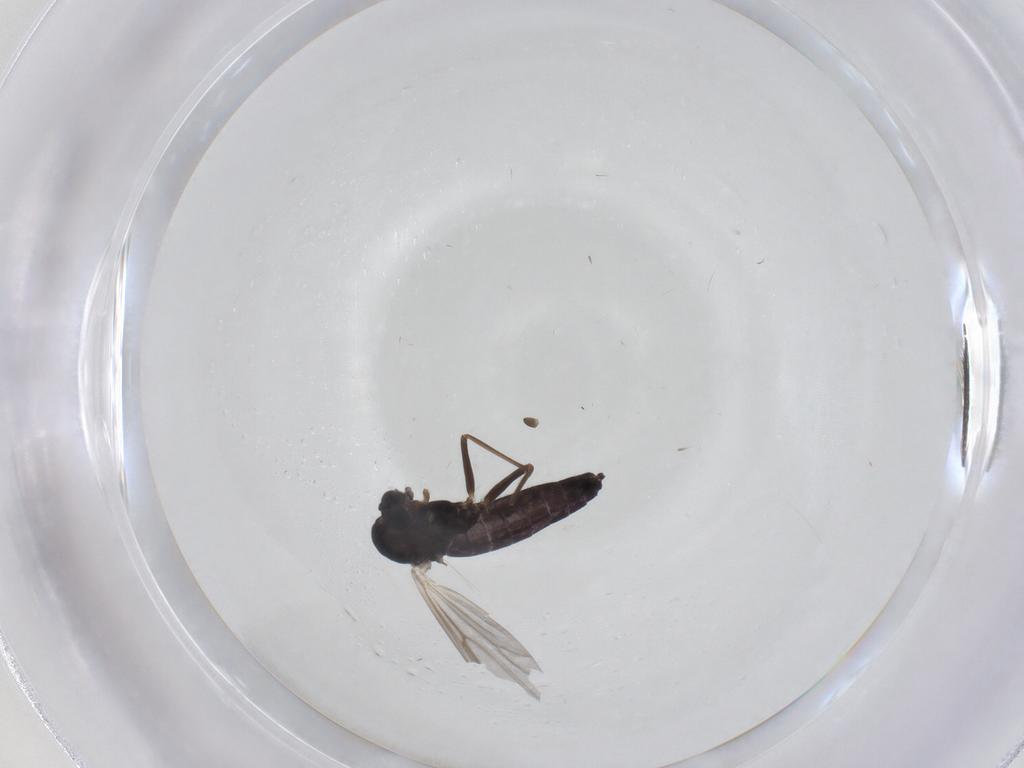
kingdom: Animalia
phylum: Arthropoda
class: Insecta
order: Diptera
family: Chironomidae
